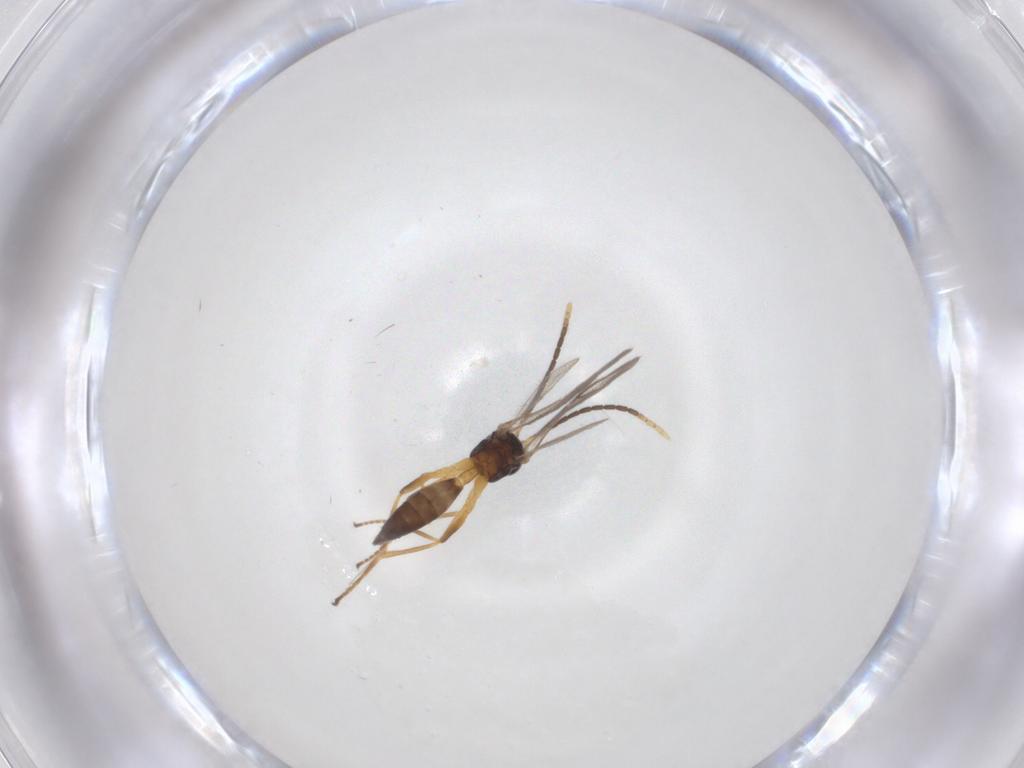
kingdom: Animalia
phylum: Arthropoda
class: Insecta
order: Hymenoptera
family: Braconidae
